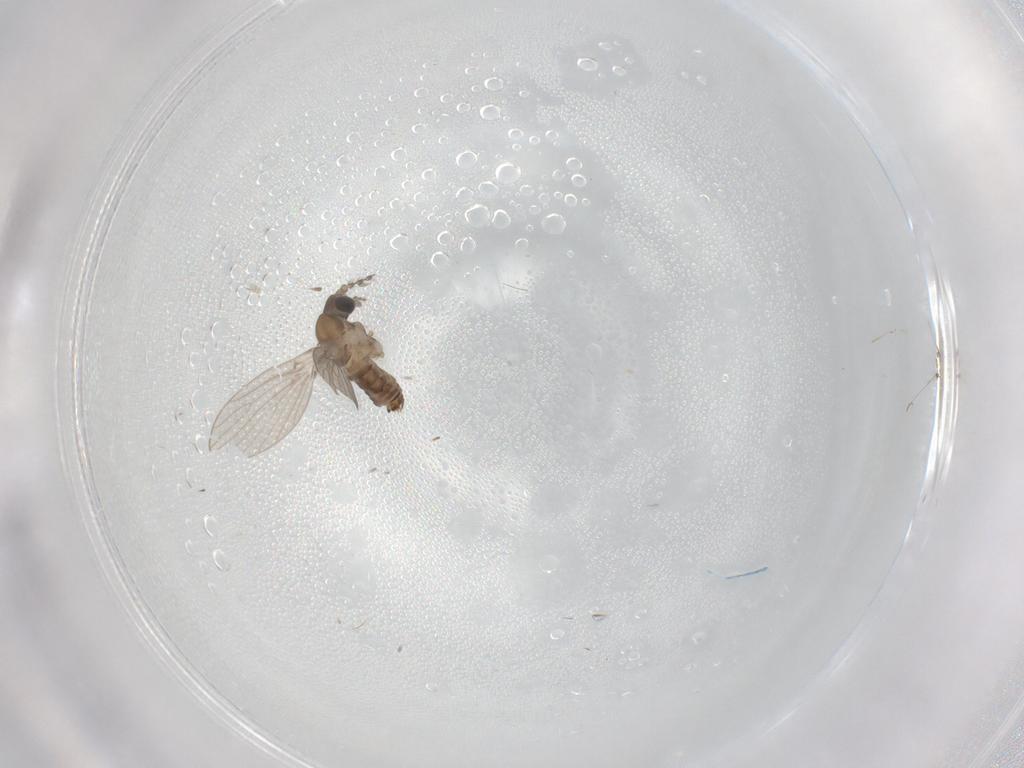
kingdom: Animalia
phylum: Arthropoda
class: Insecta
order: Diptera
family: Psychodidae
